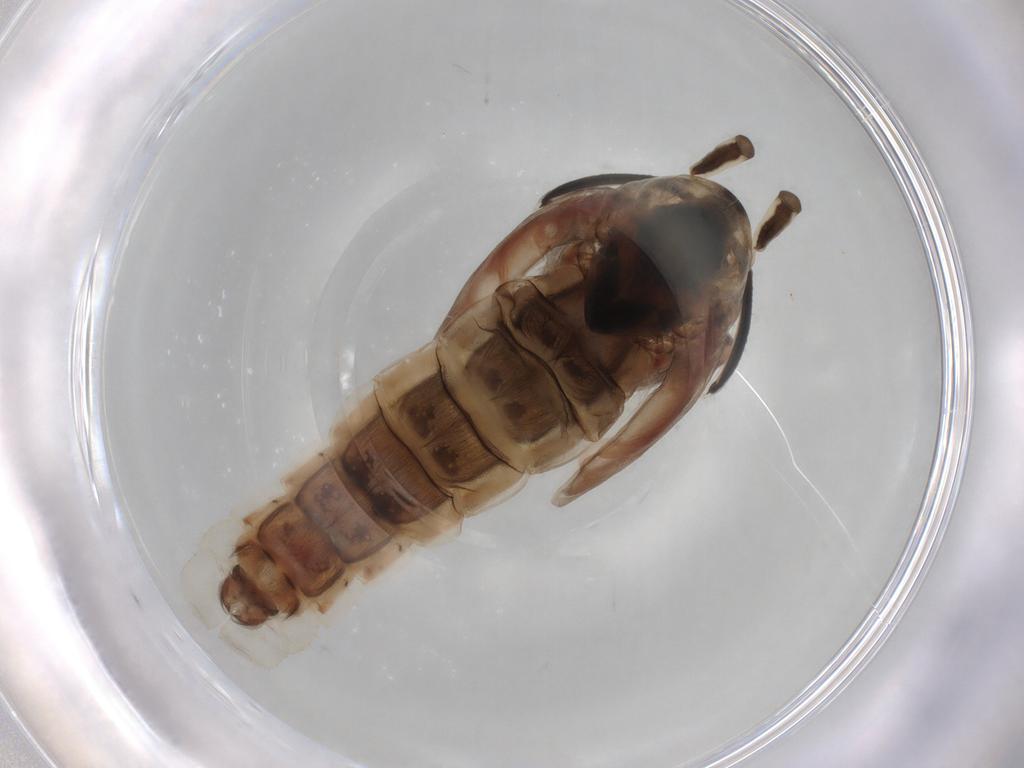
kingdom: Animalia
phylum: Arthropoda
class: Insecta
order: Diptera
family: Chironomidae
